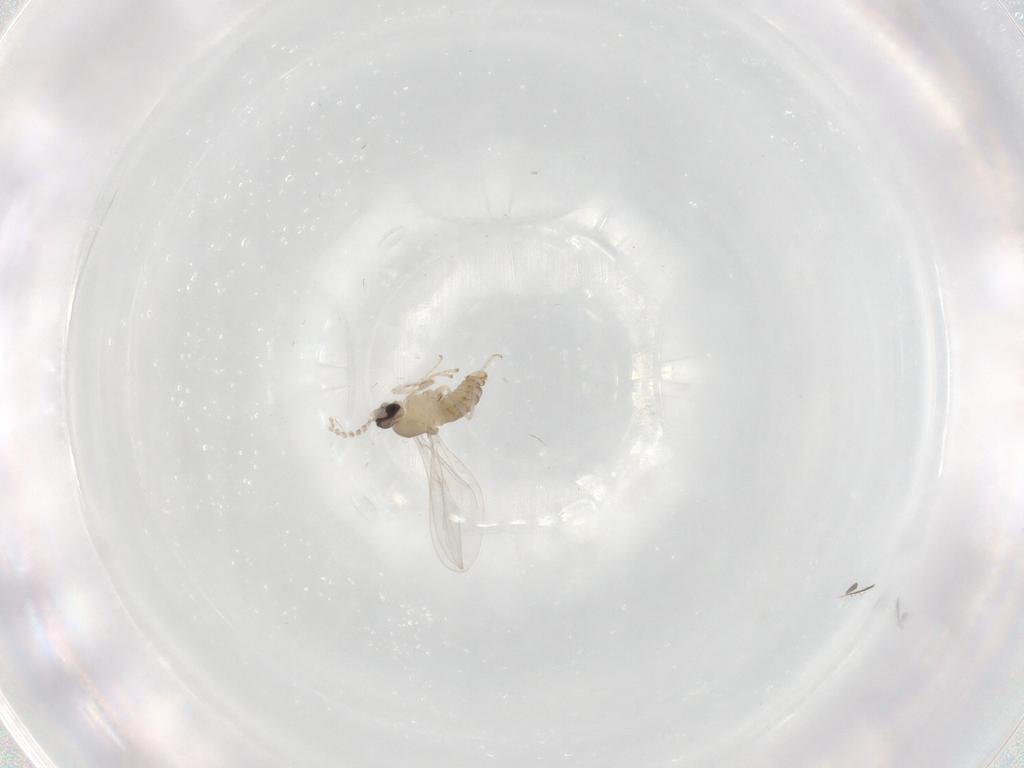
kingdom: Animalia
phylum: Arthropoda
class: Insecta
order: Diptera
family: Cecidomyiidae
